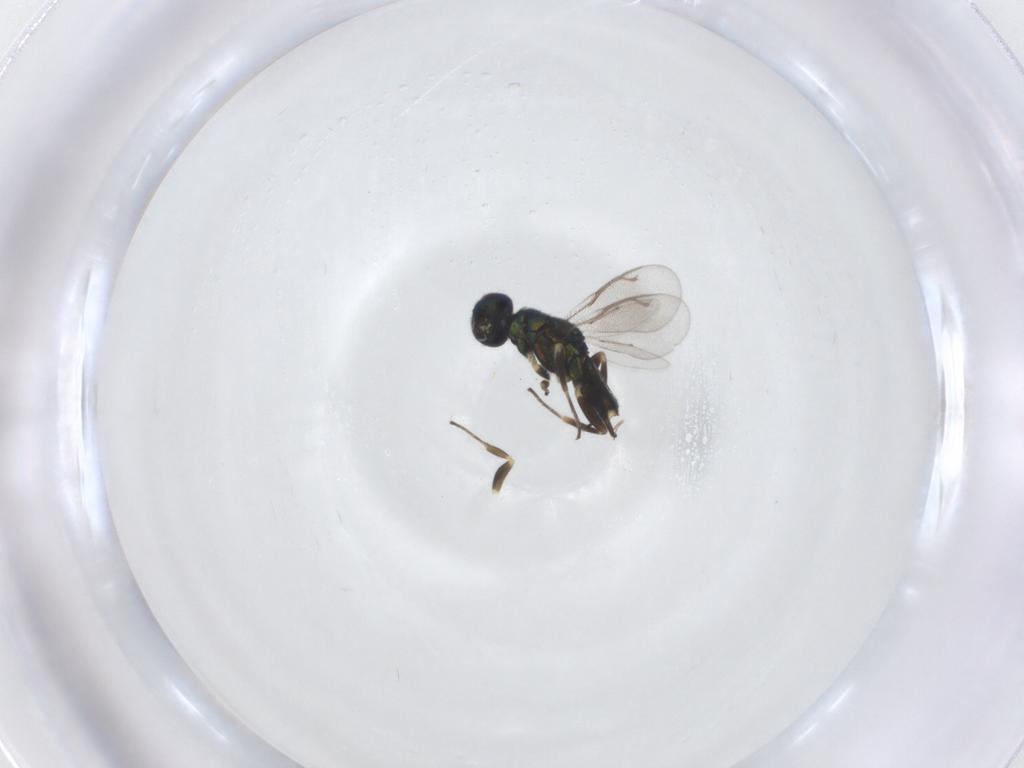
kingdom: Animalia
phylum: Arthropoda
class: Insecta
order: Hymenoptera
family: Eupelmidae
